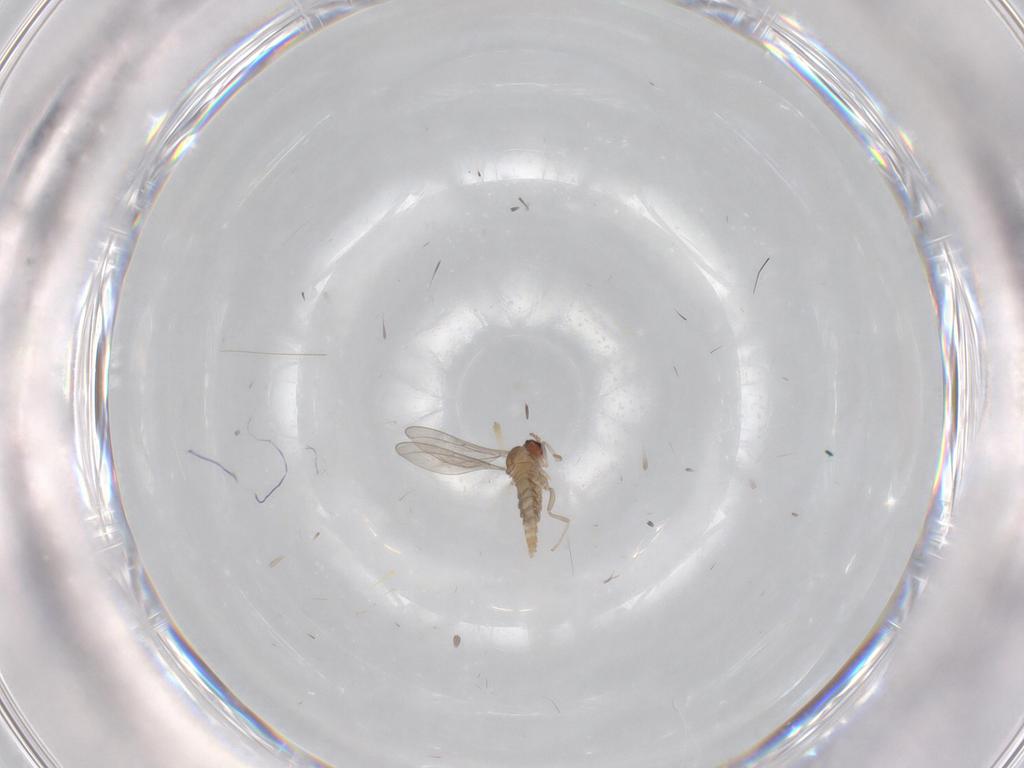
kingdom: Animalia
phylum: Arthropoda
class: Insecta
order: Diptera
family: Cecidomyiidae
